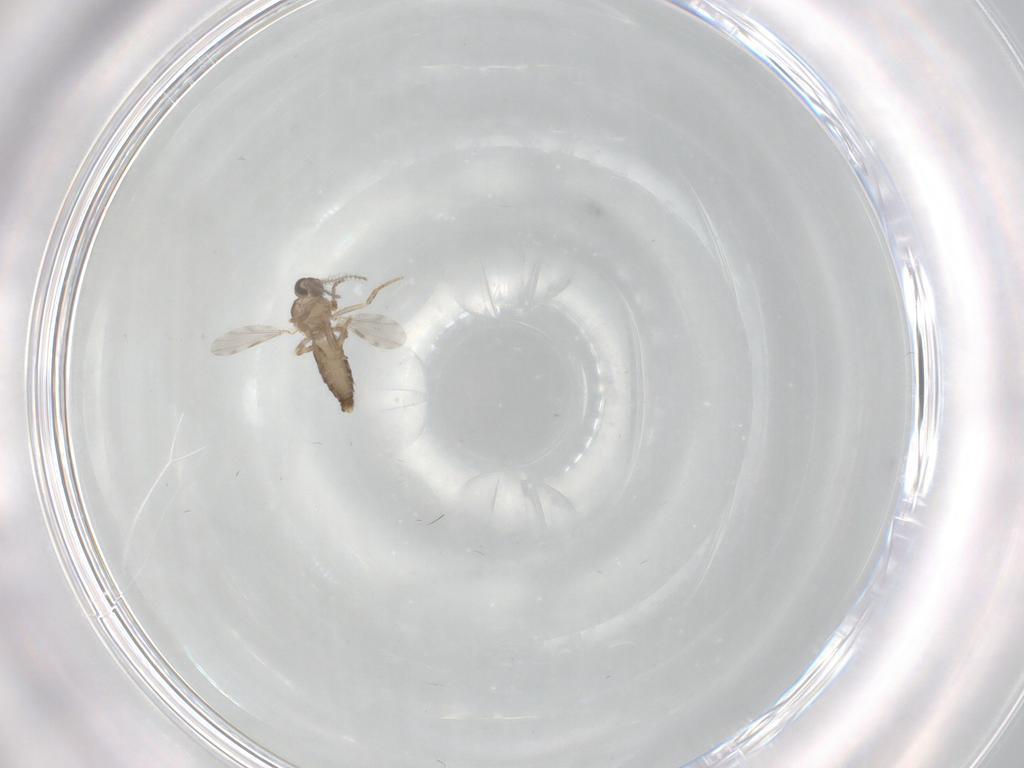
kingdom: Animalia
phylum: Arthropoda
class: Insecta
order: Diptera
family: Ceratopogonidae
